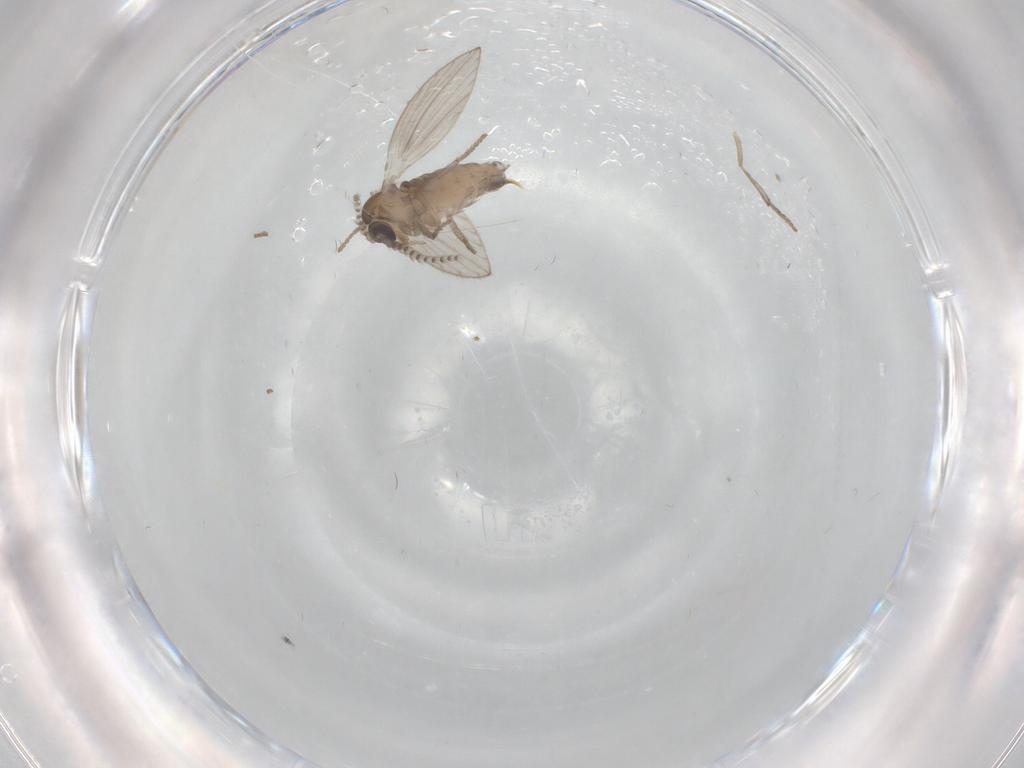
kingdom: Animalia
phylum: Arthropoda
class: Insecta
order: Diptera
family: Psychodidae
